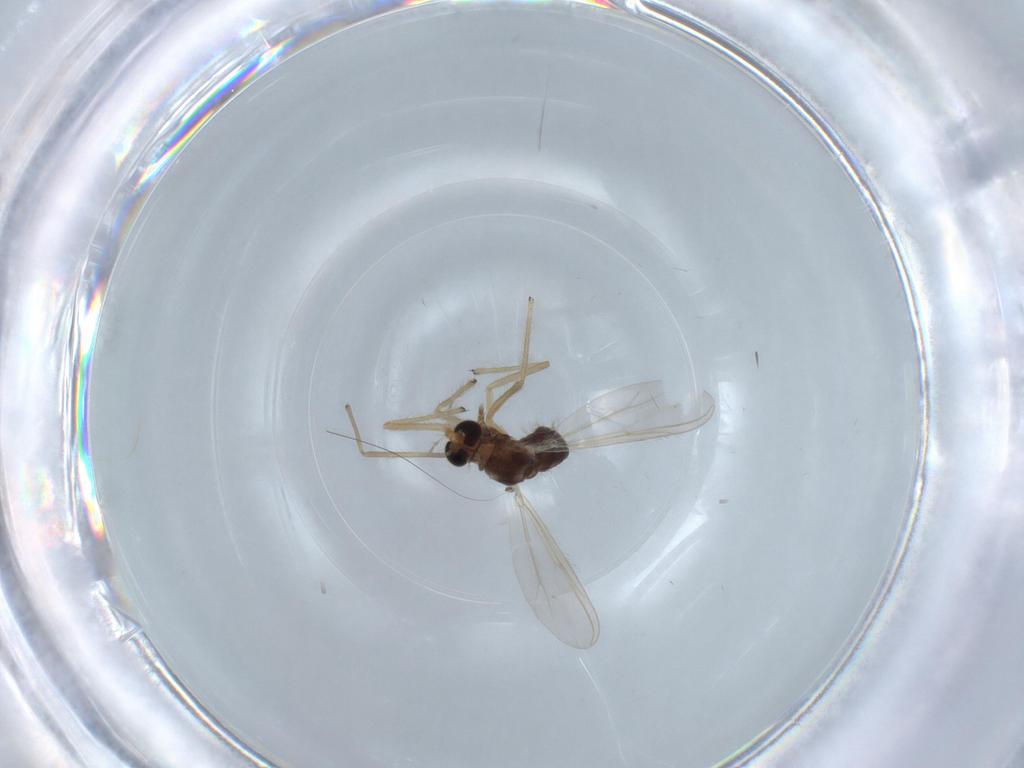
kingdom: Animalia
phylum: Arthropoda
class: Insecta
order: Diptera
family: Chironomidae
